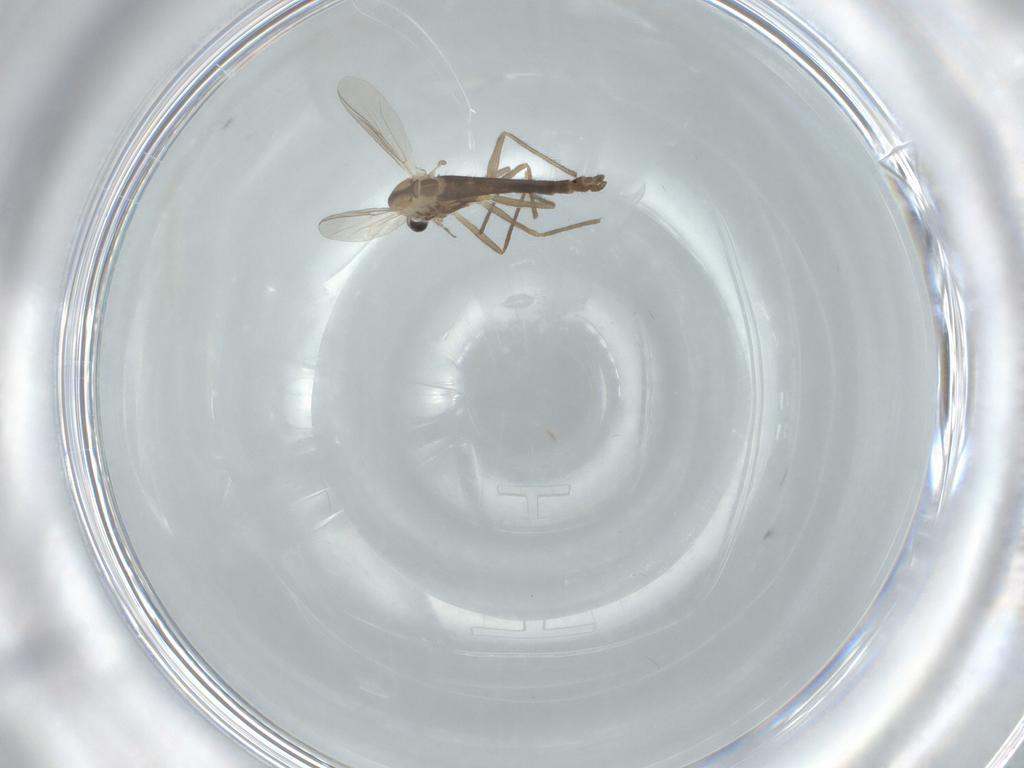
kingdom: Animalia
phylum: Arthropoda
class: Insecta
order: Diptera
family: Chironomidae
